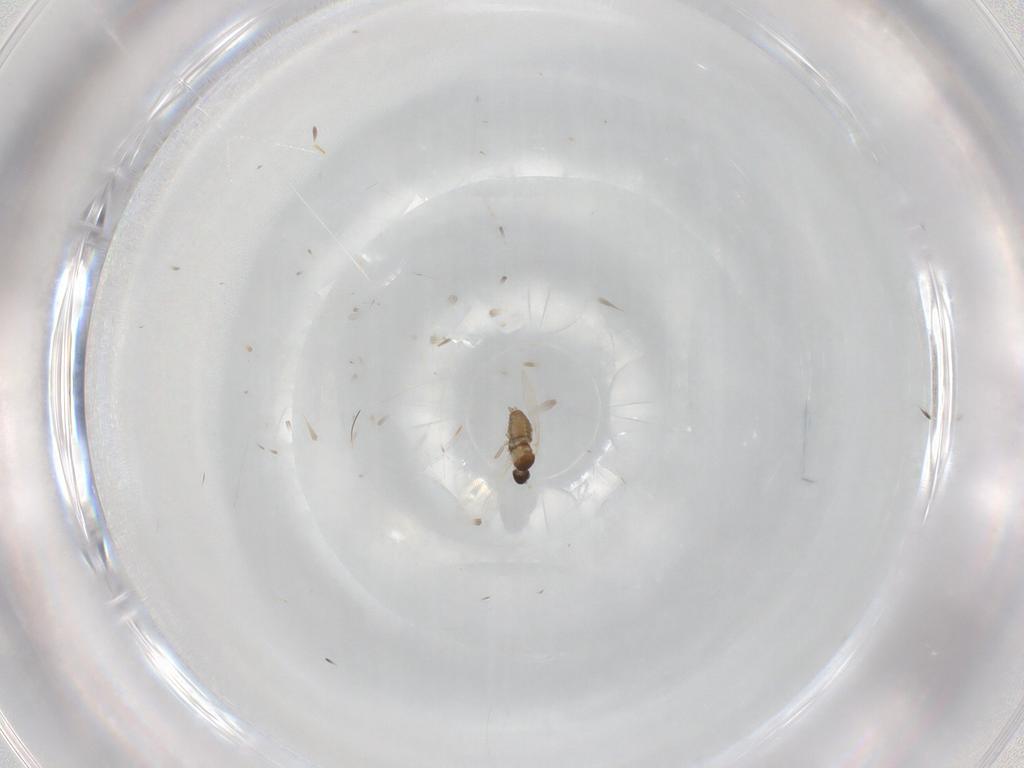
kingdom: Animalia
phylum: Arthropoda
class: Insecta
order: Diptera
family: Cecidomyiidae
